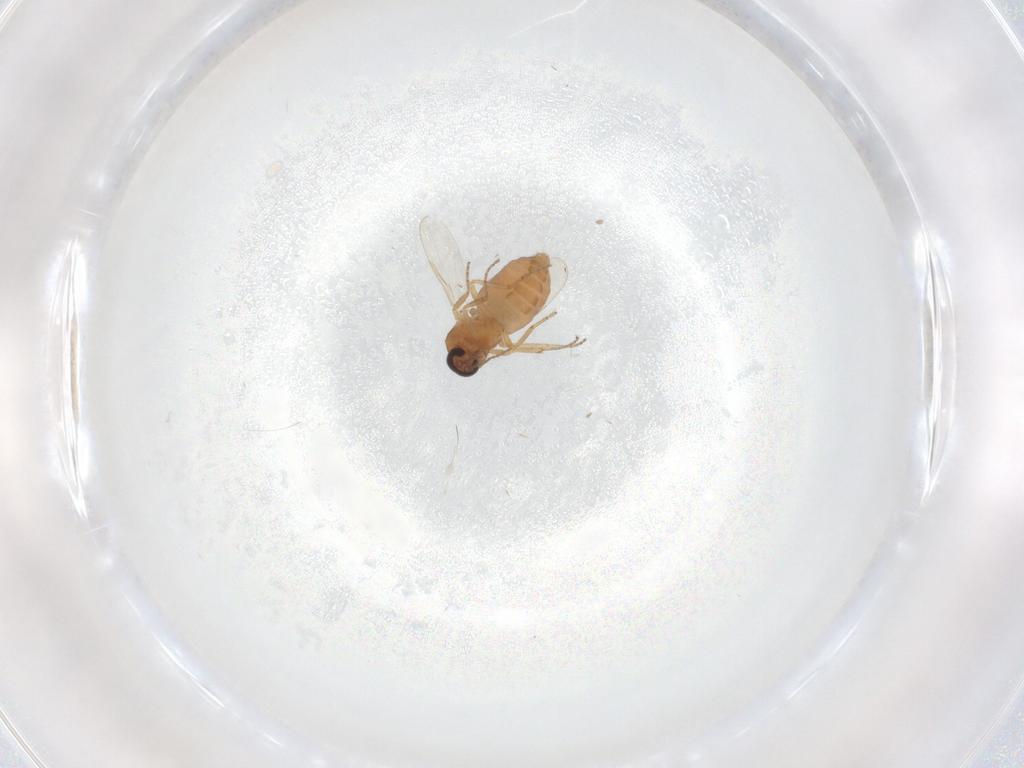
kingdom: Animalia
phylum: Arthropoda
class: Insecta
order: Diptera
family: Ceratopogonidae
